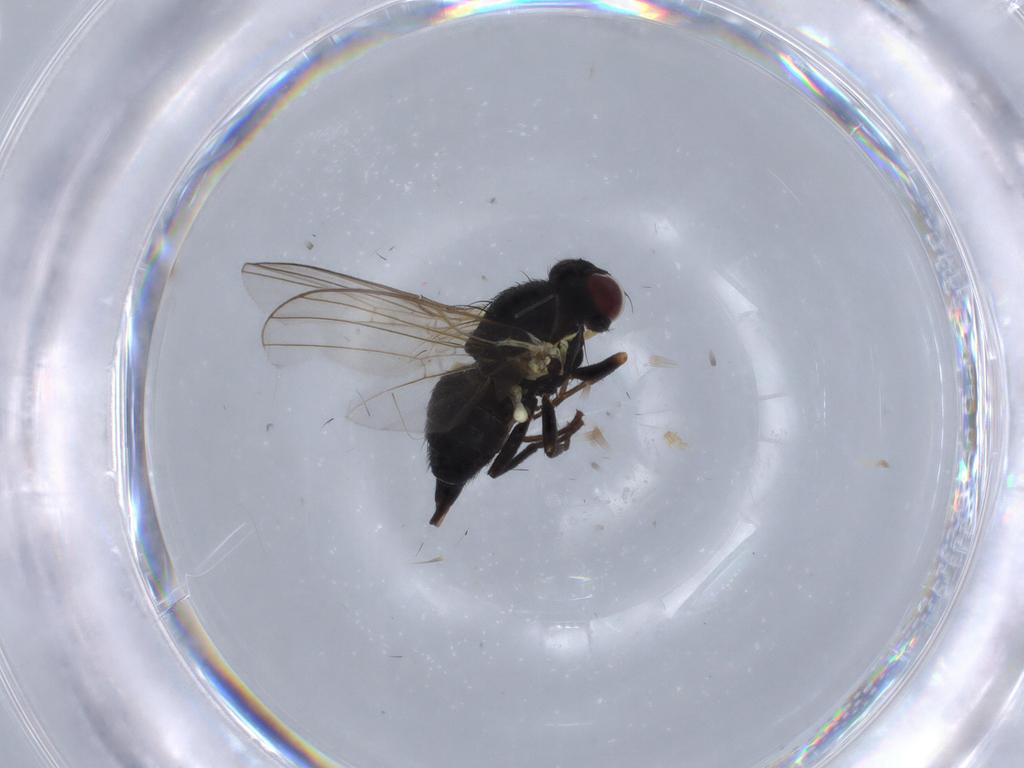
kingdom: Animalia
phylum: Arthropoda
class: Insecta
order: Diptera
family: Agromyzidae
